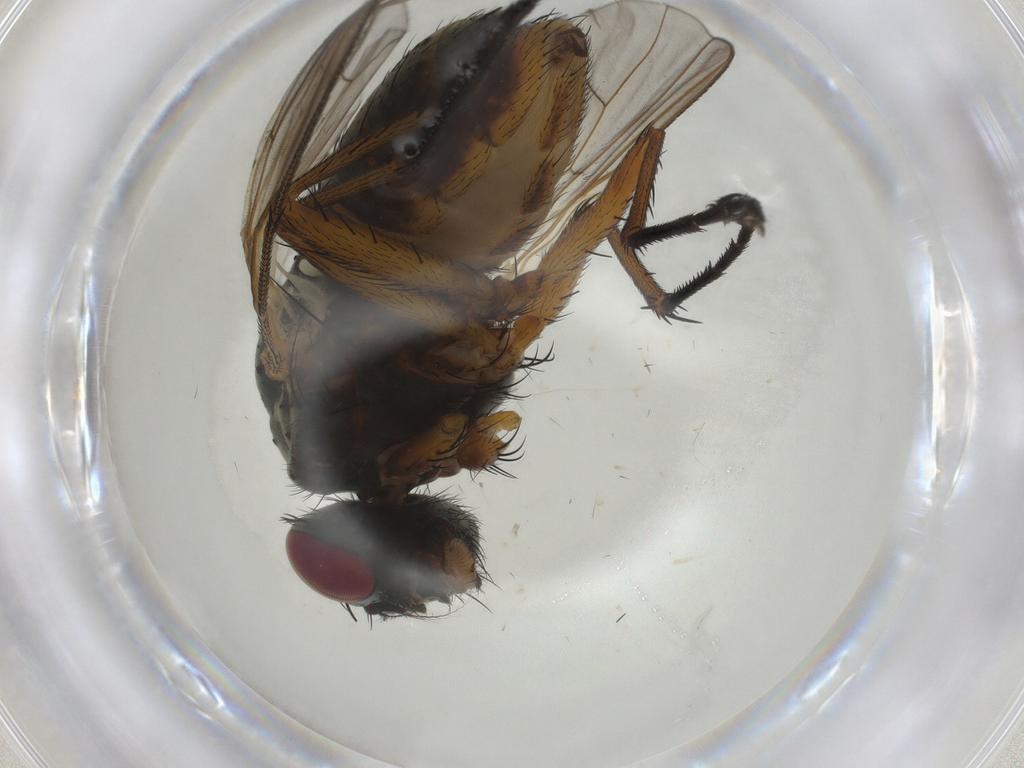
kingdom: Animalia
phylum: Arthropoda
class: Insecta
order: Diptera
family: Muscidae
